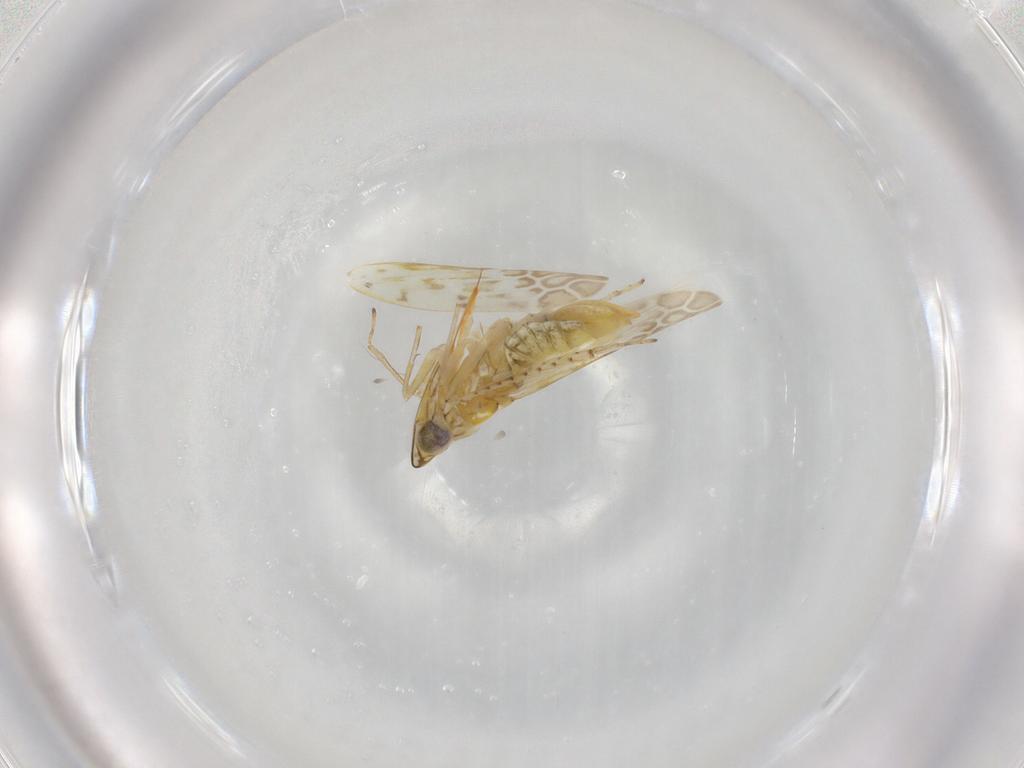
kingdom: Animalia
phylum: Arthropoda
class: Insecta
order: Hemiptera
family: Cicadellidae
